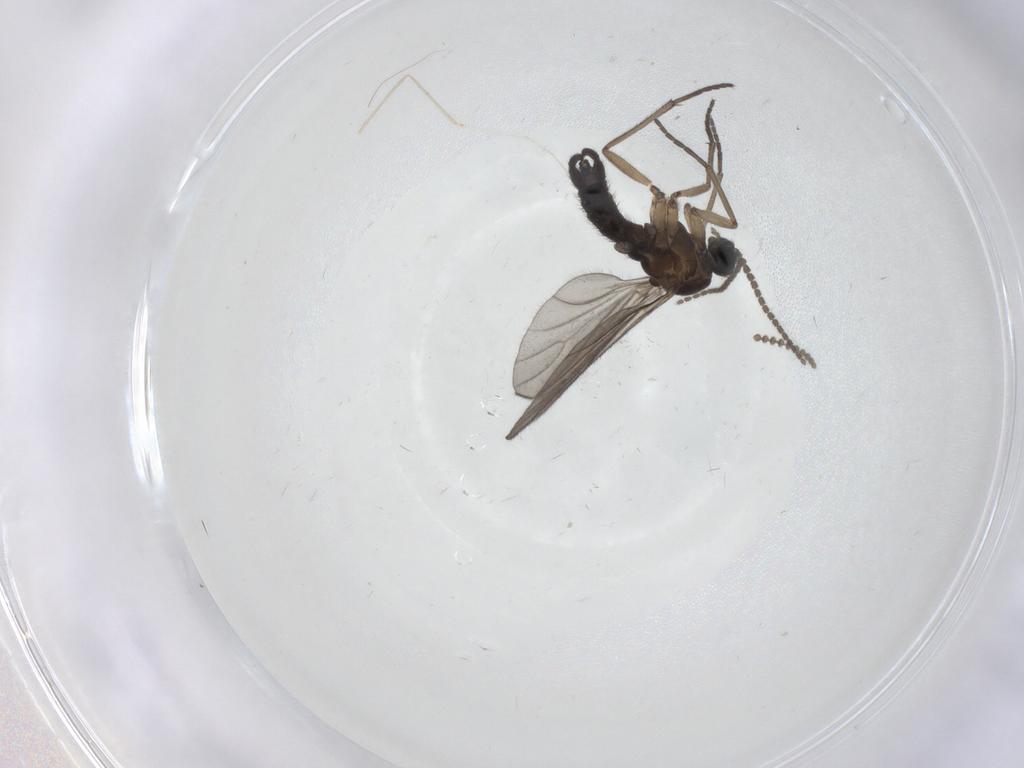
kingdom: Animalia
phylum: Arthropoda
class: Insecta
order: Diptera
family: Sciaridae
